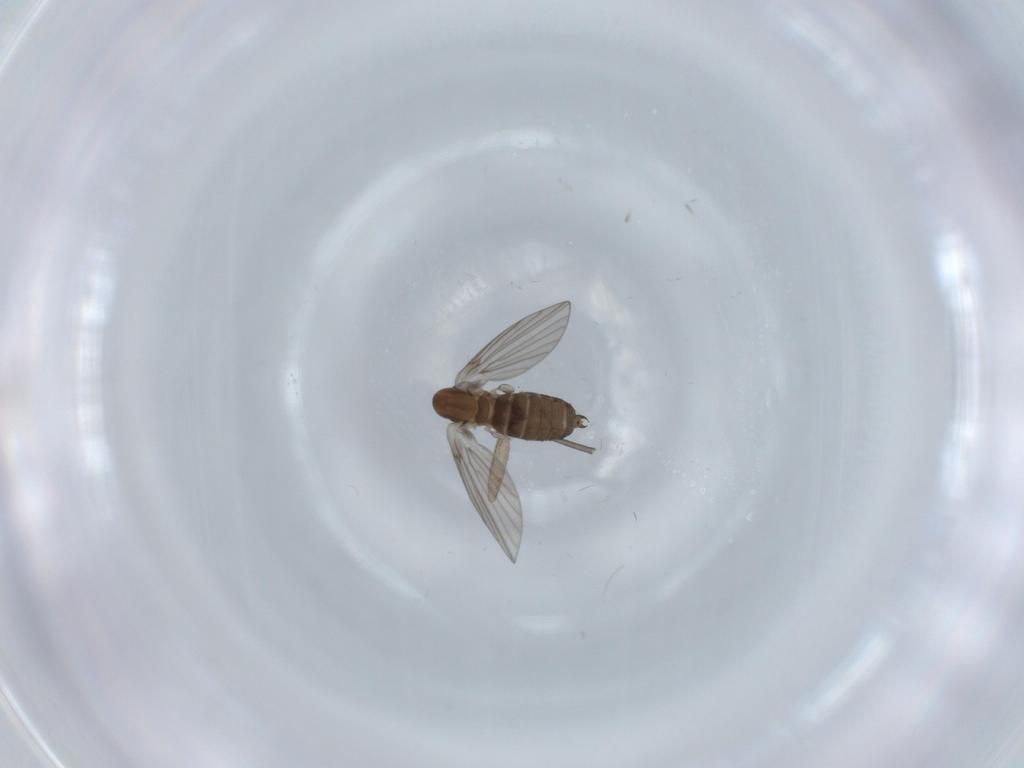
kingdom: Animalia
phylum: Arthropoda
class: Insecta
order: Diptera
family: Sciaridae
